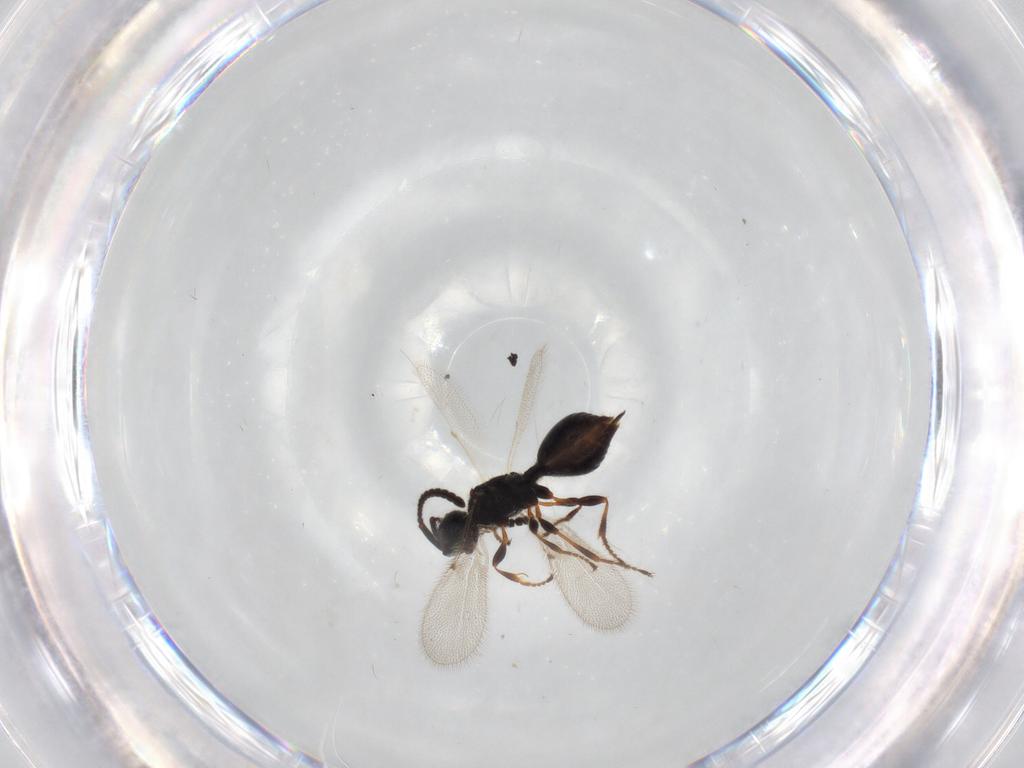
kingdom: Animalia
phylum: Arthropoda
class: Insecta
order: Hymenoptera
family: Diapriidae
